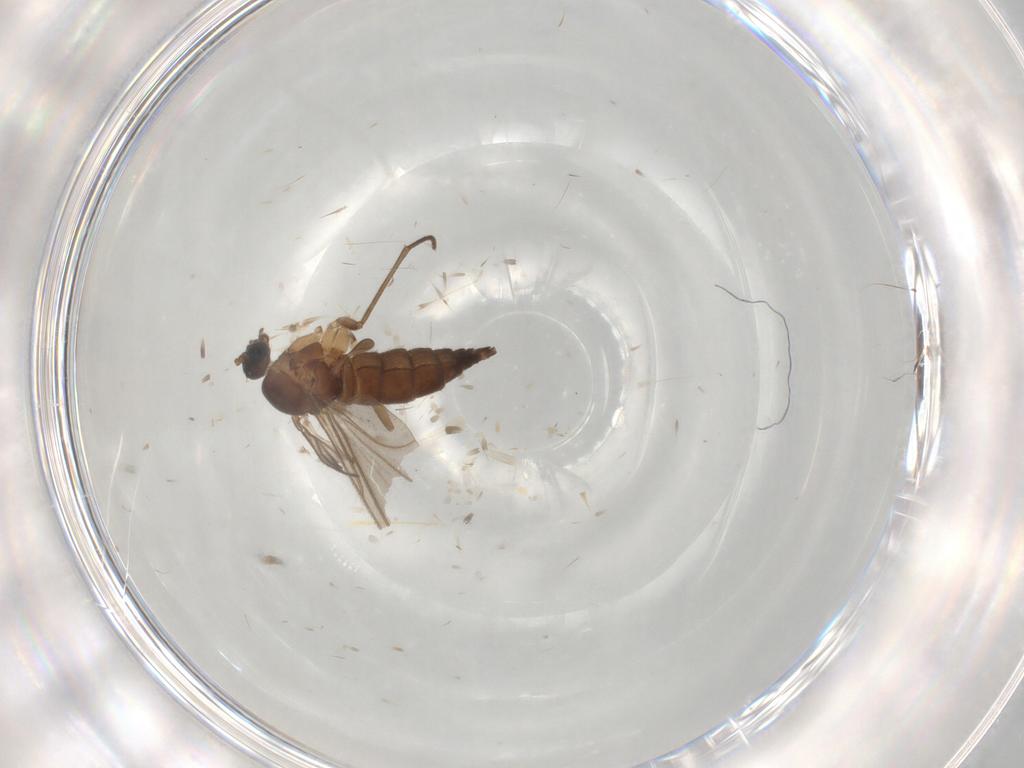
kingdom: Animalia
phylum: Arthropoda
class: Insecta
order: Diptera
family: Sciaridae
